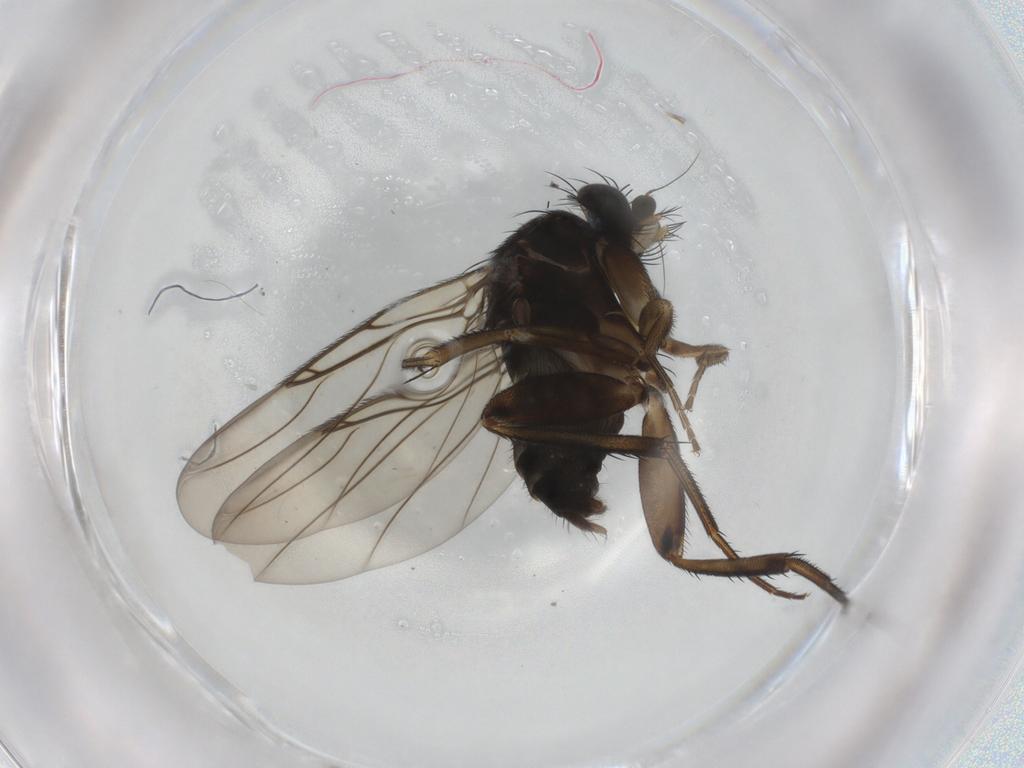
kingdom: Animalia
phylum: Arthropoda
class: Insecta
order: Diptera
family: Phoridae
